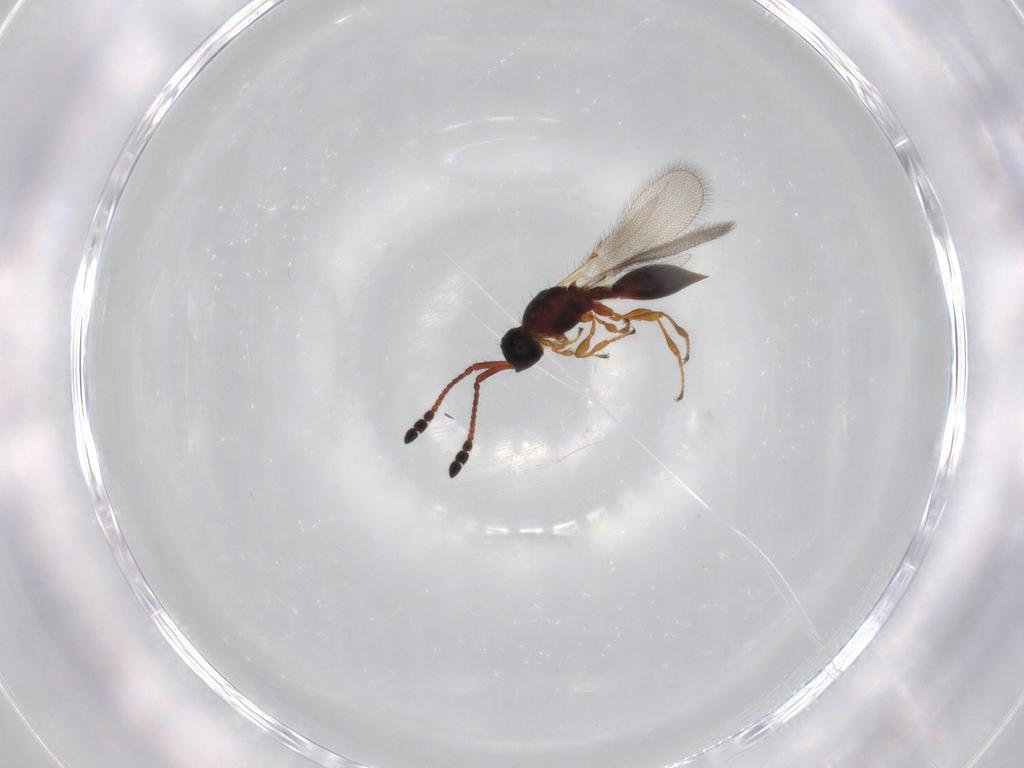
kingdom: Animalia
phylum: Arthropoda
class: Insecta
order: Hymenoptera
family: Diapriidae
